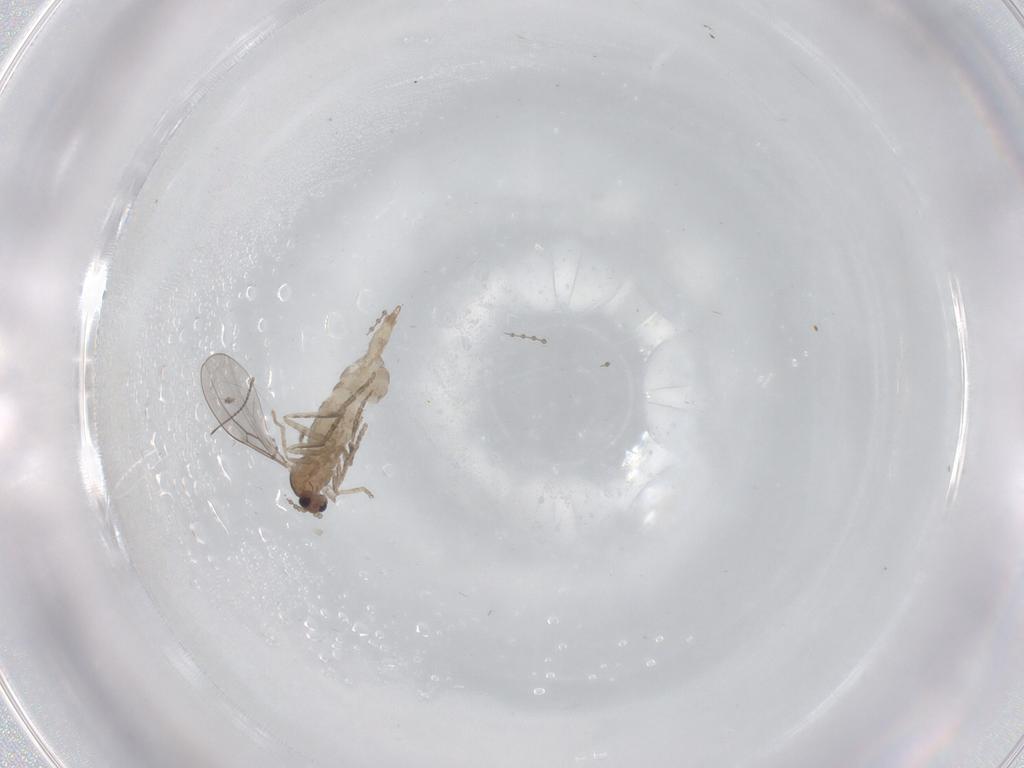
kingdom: Animalia
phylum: Arthropoda
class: Insecta
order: Diptera
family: Cecidomyiidae
